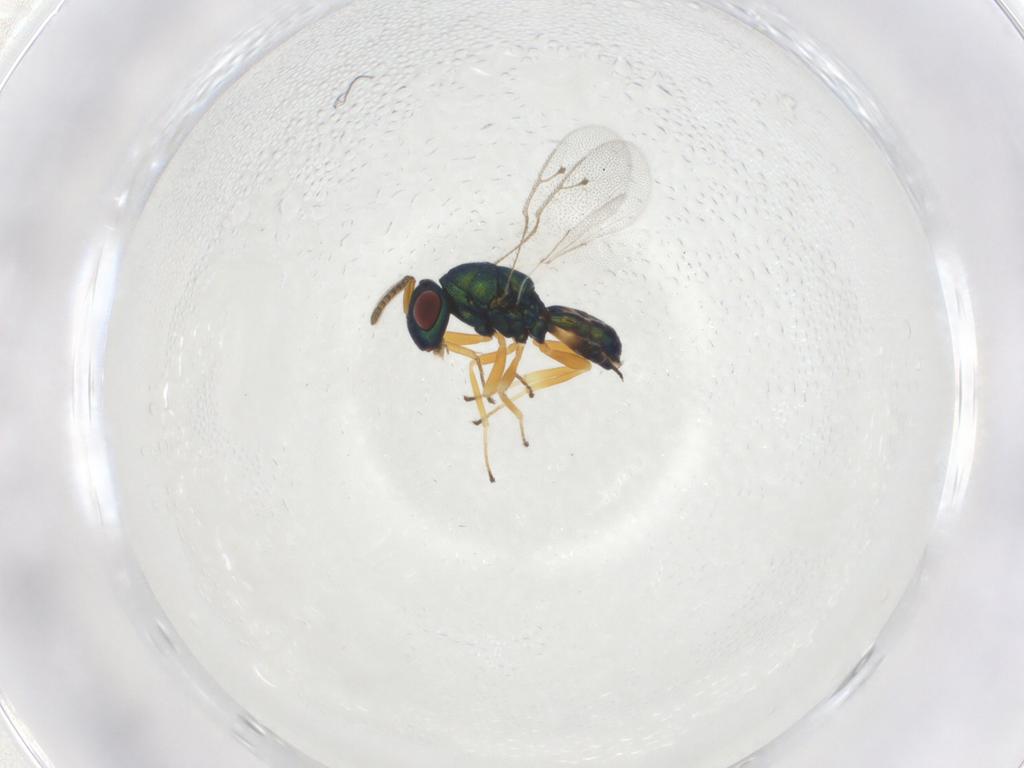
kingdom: Animalia
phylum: Arthropoda
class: Insecta
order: Hymenoptera
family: Pteromalidae
